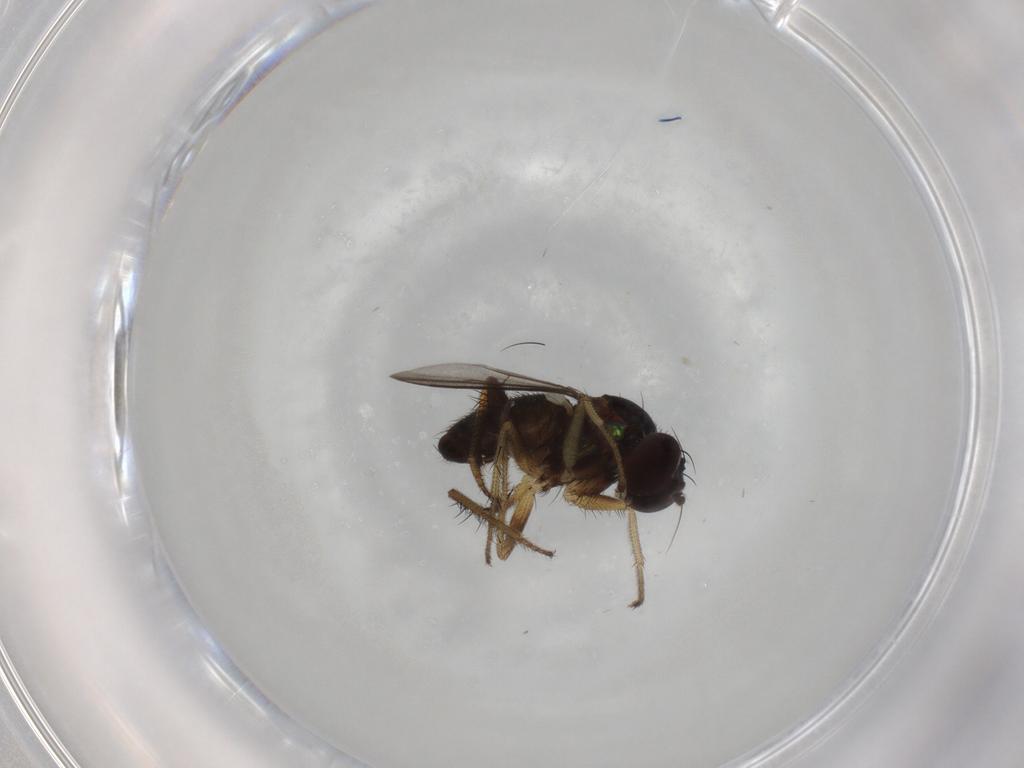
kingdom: Animalia
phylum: Arthropoda
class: Insecta
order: Diptera
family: Dolichopodidae
